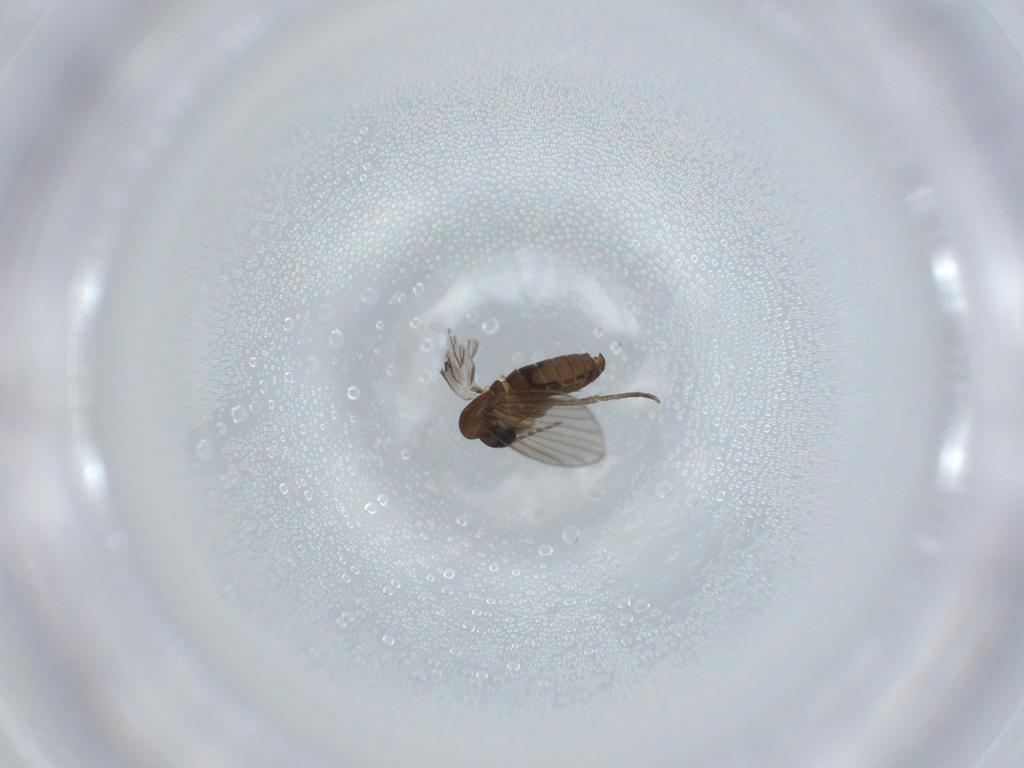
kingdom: Animalia
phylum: Arthropoda
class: Insecta
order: Diptera
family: Psychodidae
